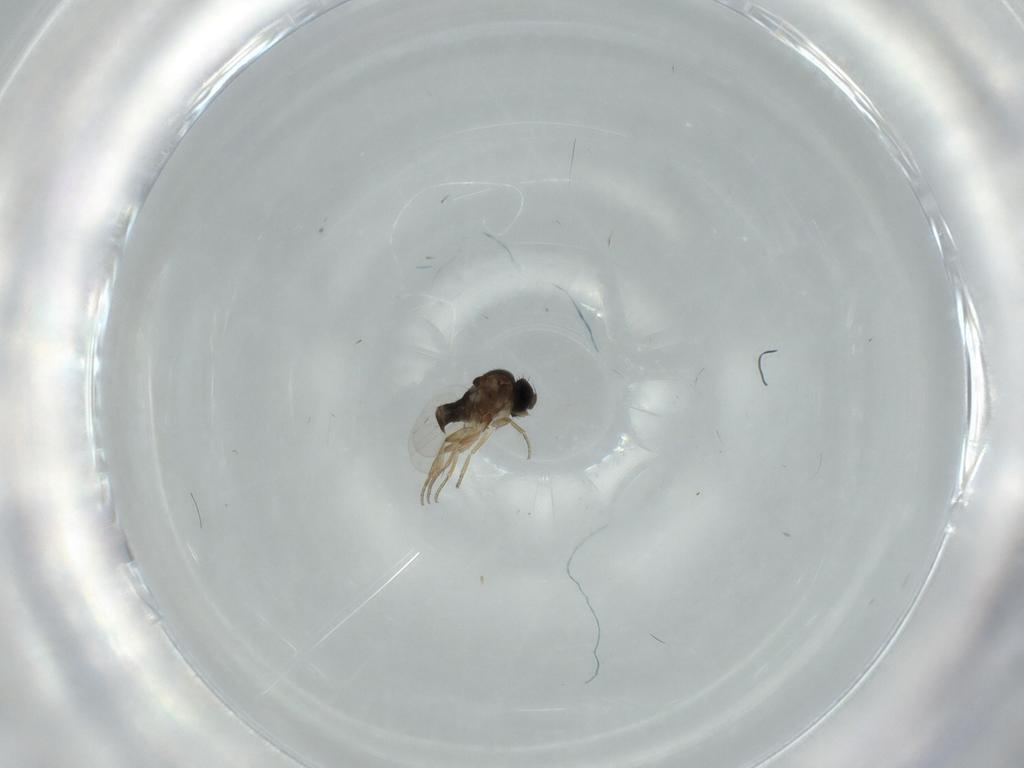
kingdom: Animalia
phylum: Arthropoda
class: Insecta
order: Diptera
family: Phoridae
